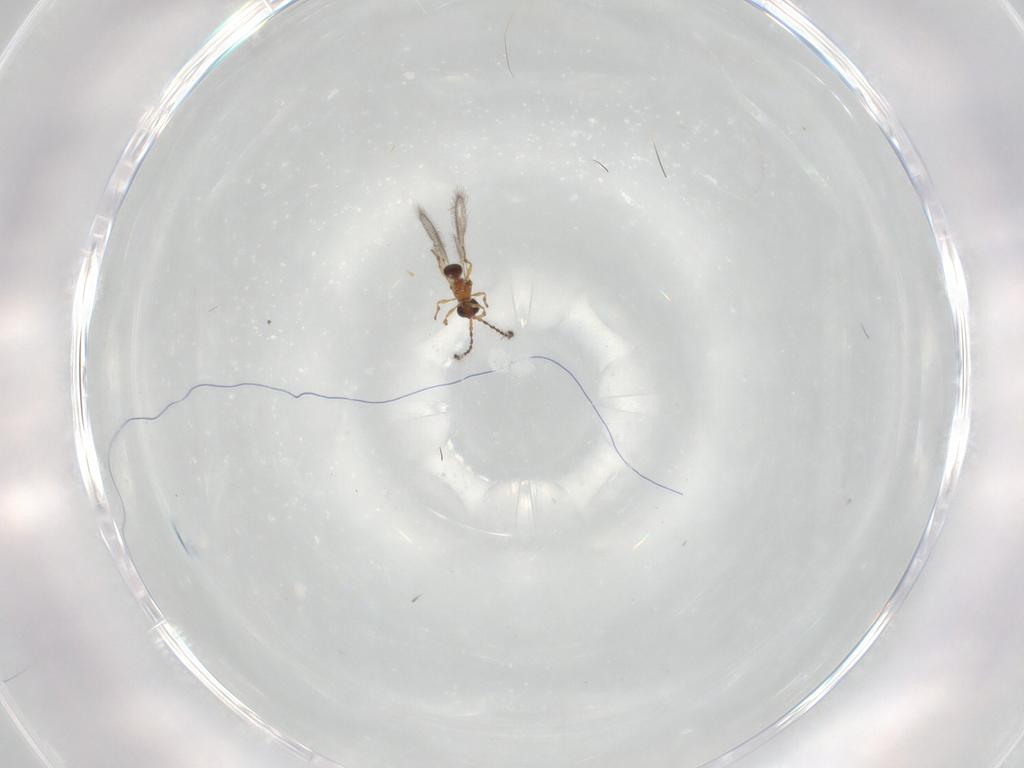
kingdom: Animalia
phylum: Arthropoda
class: Insecta
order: Hymenoptera
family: Diapriidae
